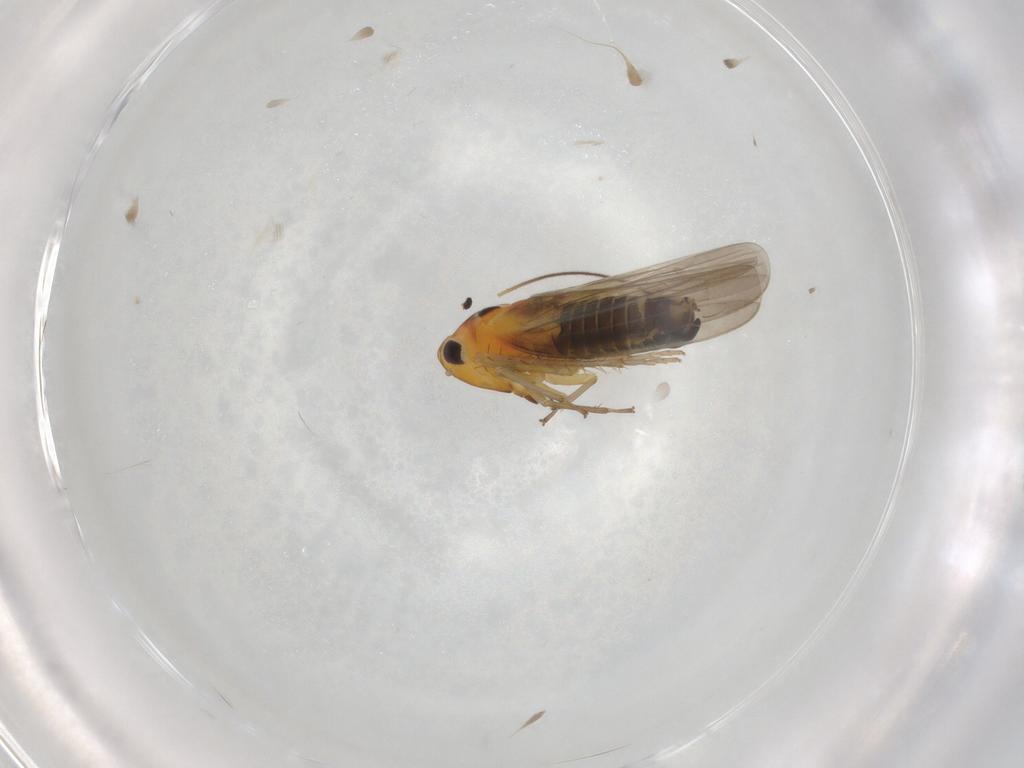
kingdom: Animalia
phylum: Arthropoda
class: Insecta
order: Hemiptera
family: Cicadellidae
